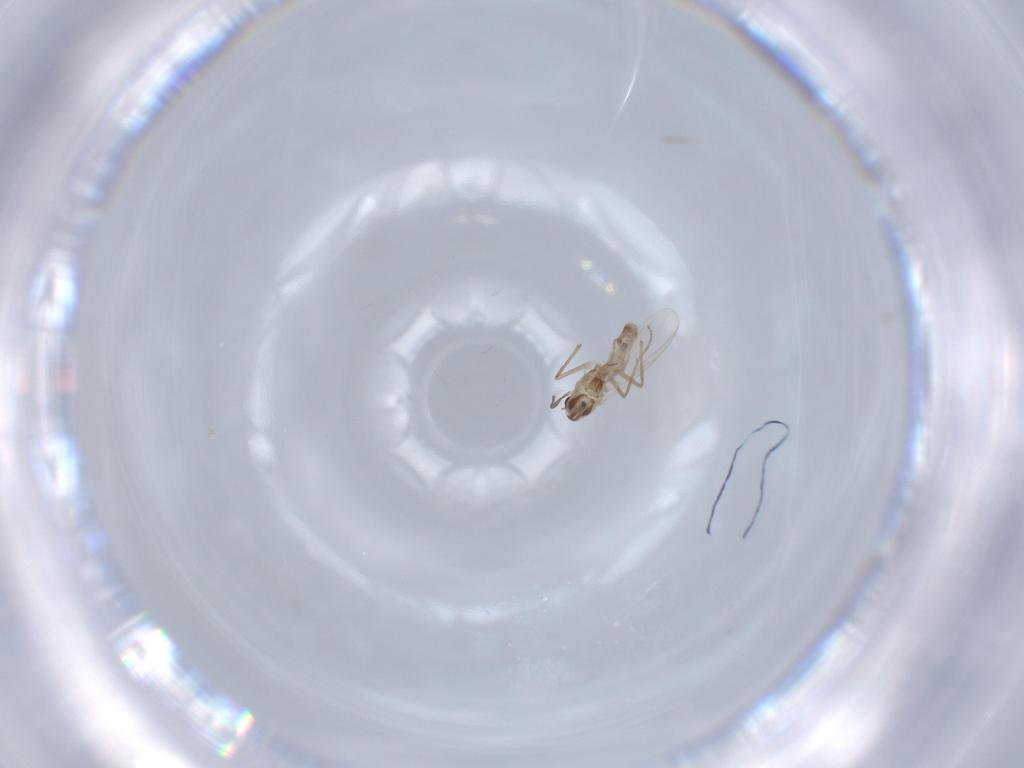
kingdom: Animalia
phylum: Arthropoda
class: Insecta
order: Diptera
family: Chironomidae
